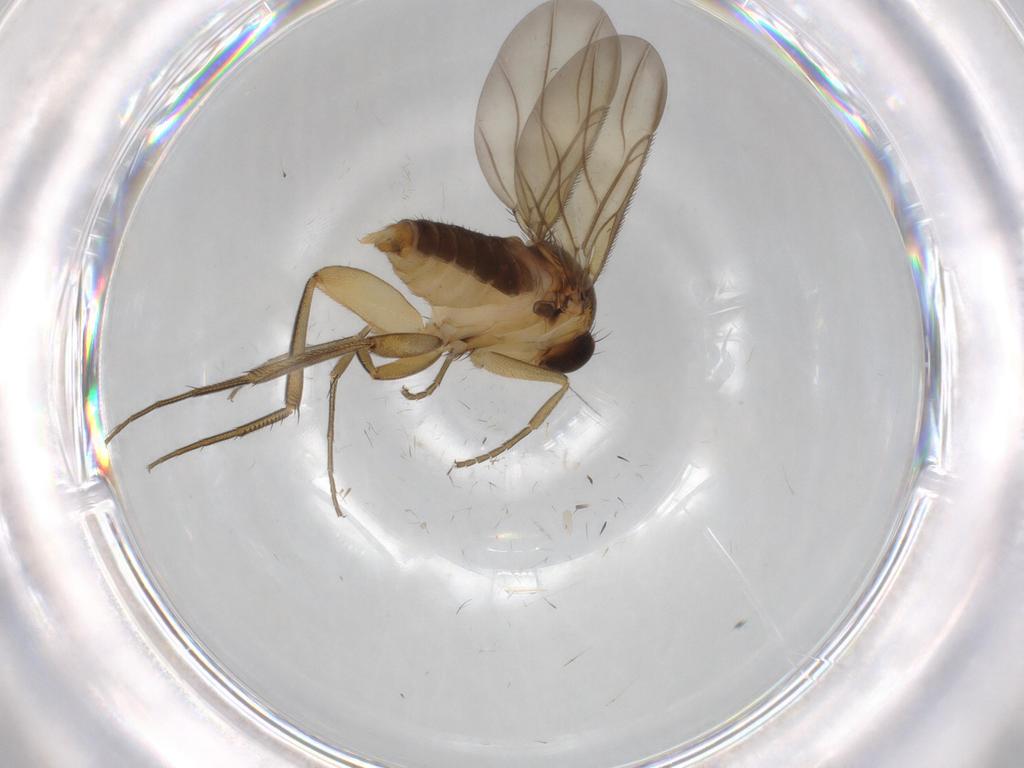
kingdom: Animalia
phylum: Arthropoda
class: Insecta
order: Diptera
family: Phoridae
